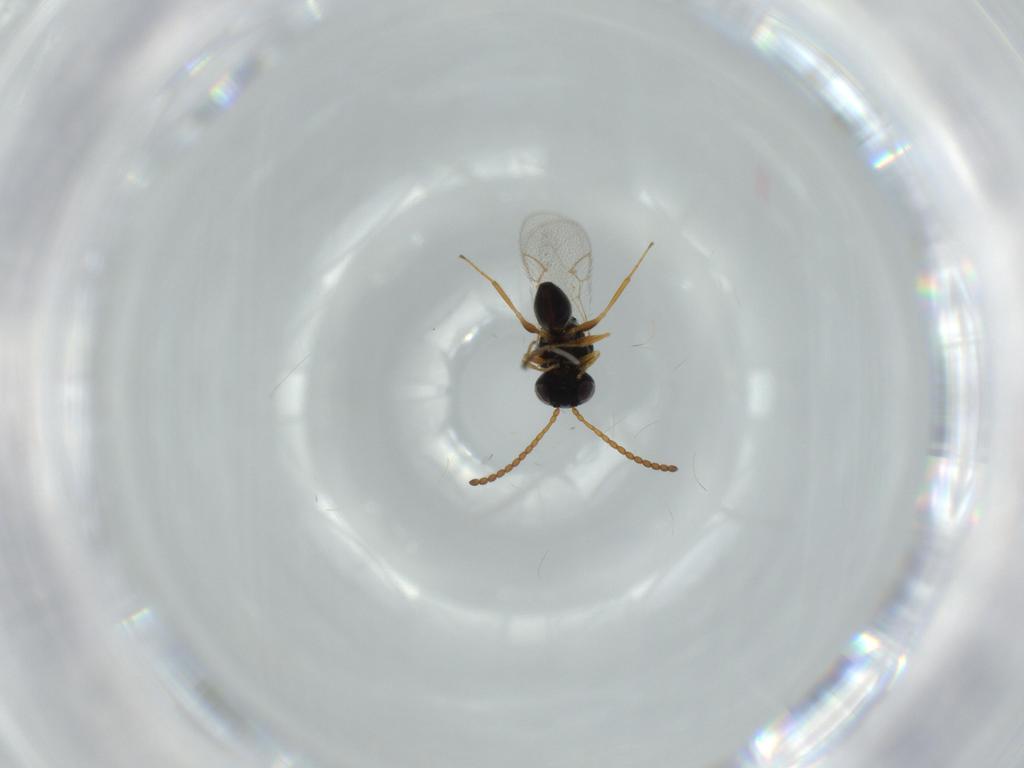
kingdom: Animalia
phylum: Arthropoda
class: Insecta
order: Hymenoptera
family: Figitidae
